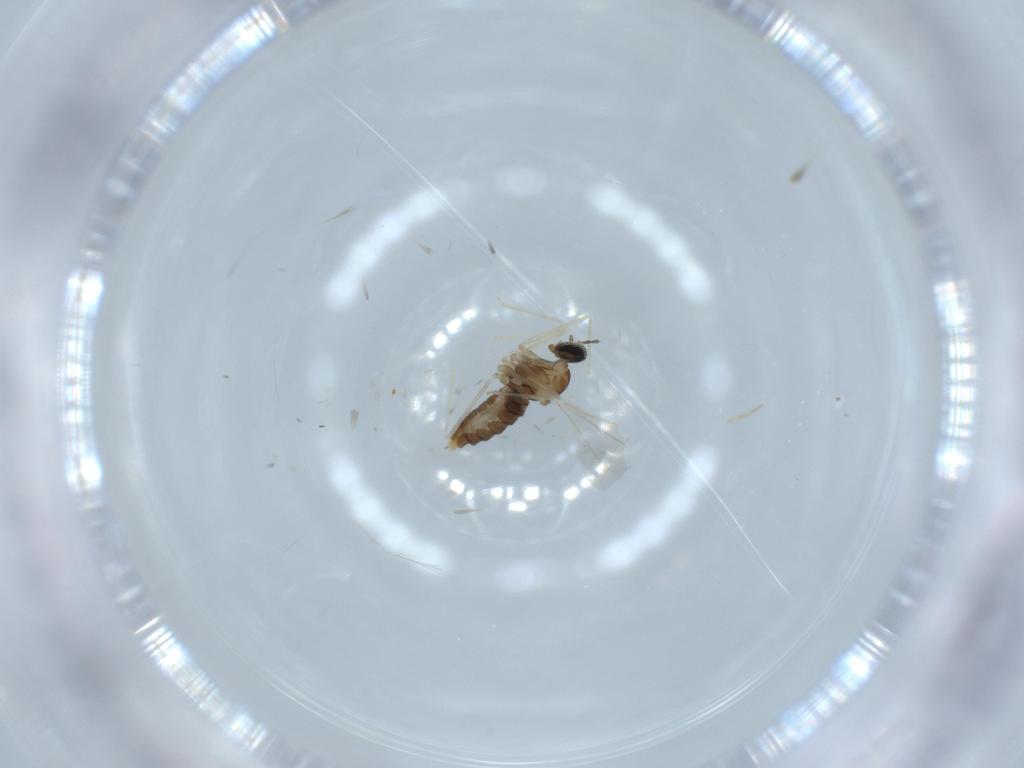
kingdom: Animalia
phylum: Arthropoda
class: Insecta
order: Diptera
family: Cecidomyiidae
